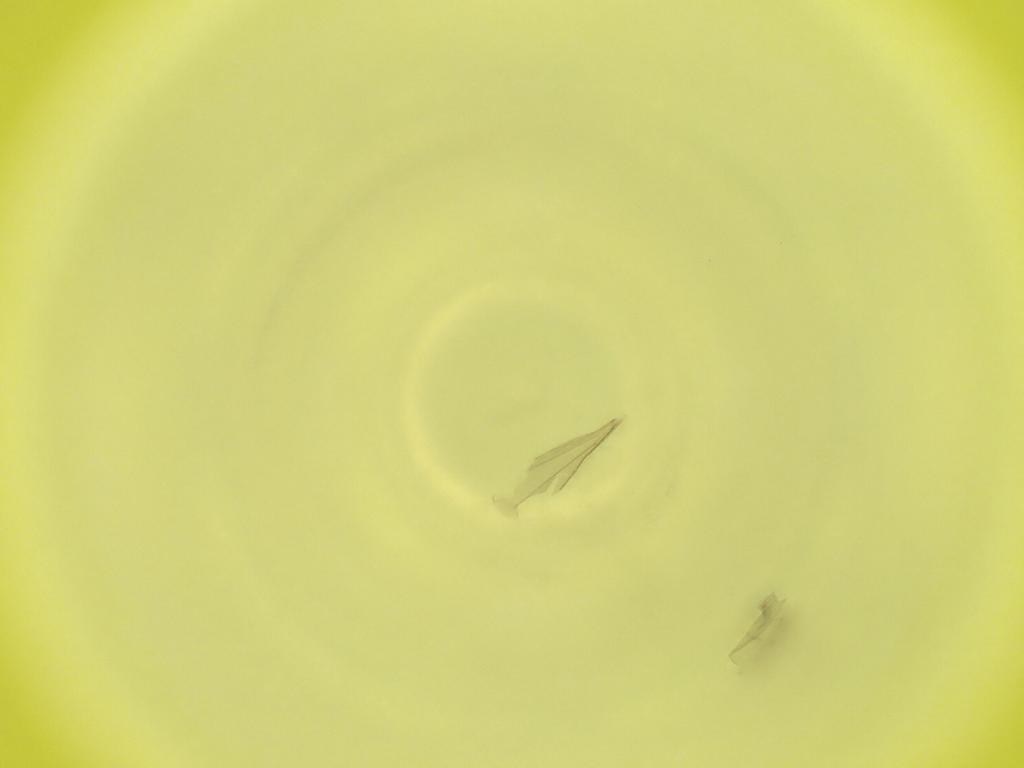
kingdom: Animalia
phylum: Arthropoda
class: Insecta
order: Diptera
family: Cecidomyiidae
